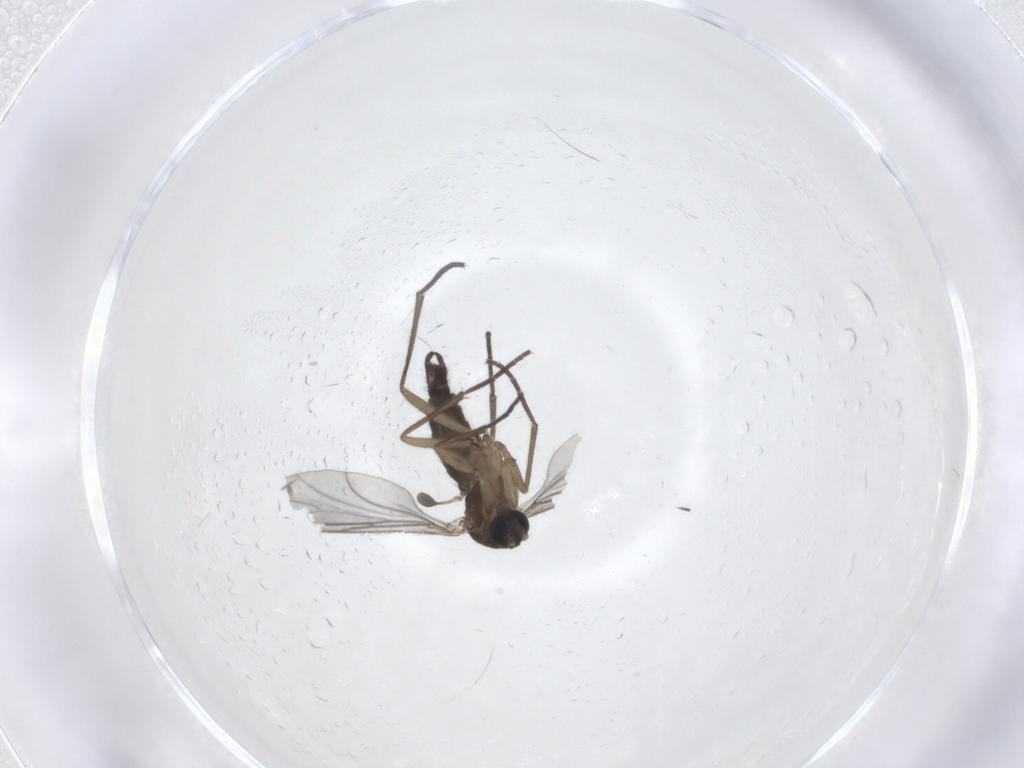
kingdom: Animalia
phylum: Arthropoda
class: Insecta
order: Diptera
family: Sciaridae
